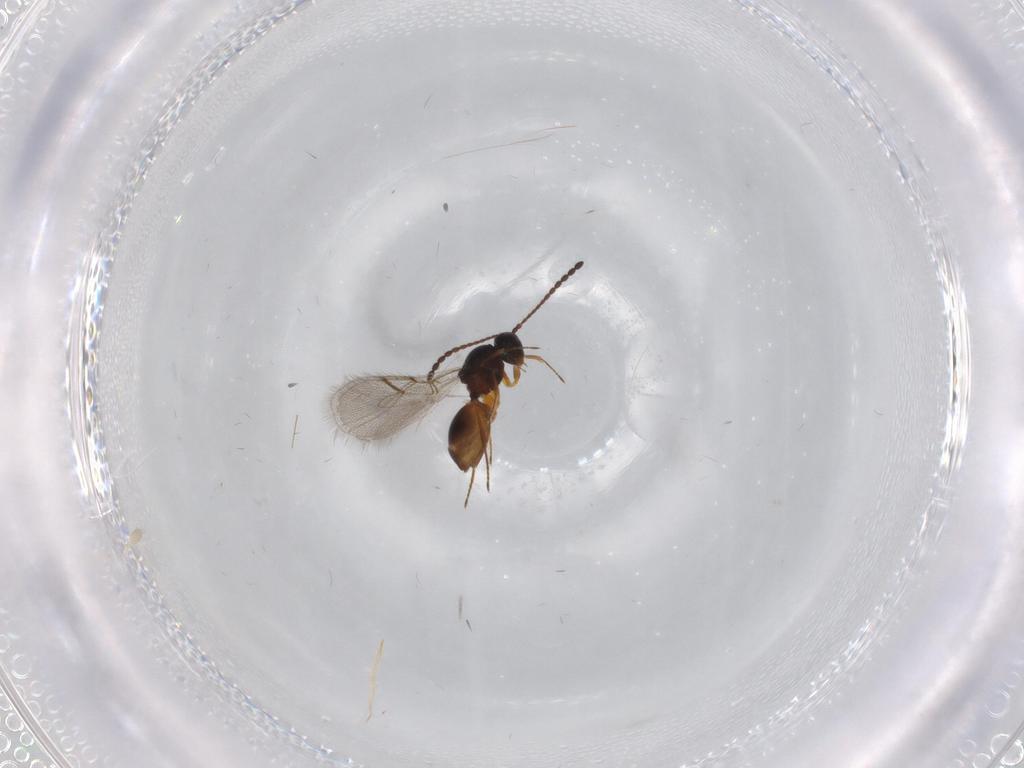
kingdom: Animalia
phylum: Arthropoda
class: Insecta
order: Hymenoptera
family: Figitidae
